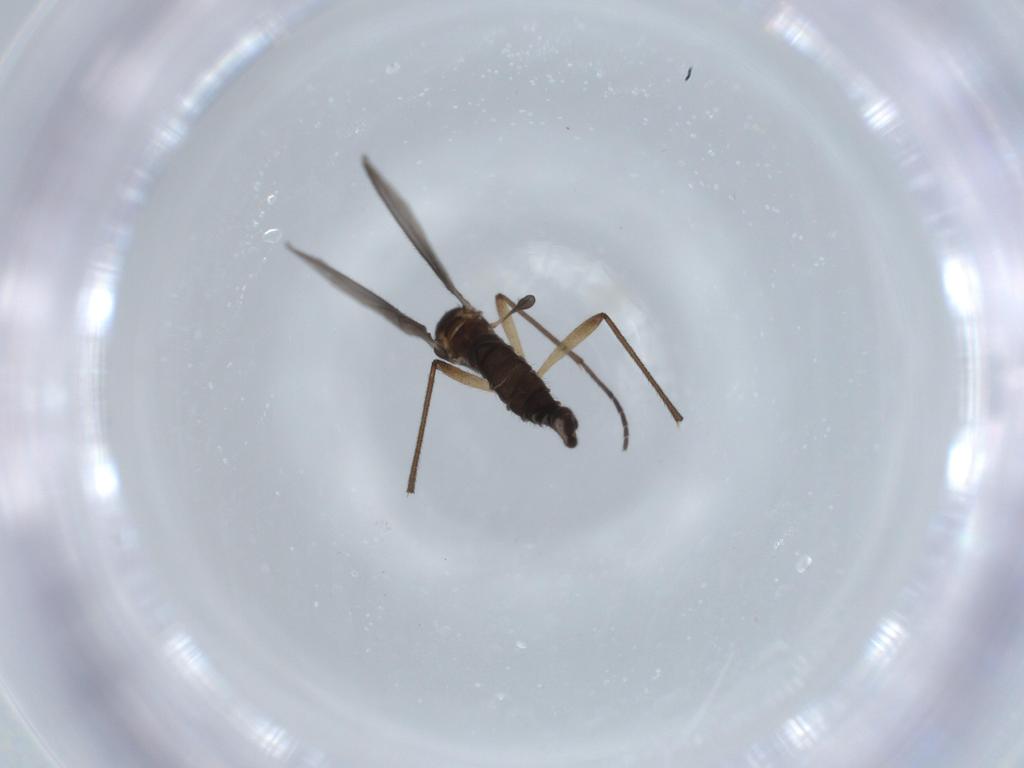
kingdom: Animalia
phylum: Arthropoda
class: Insecta
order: Diptera
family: Sciaridae
